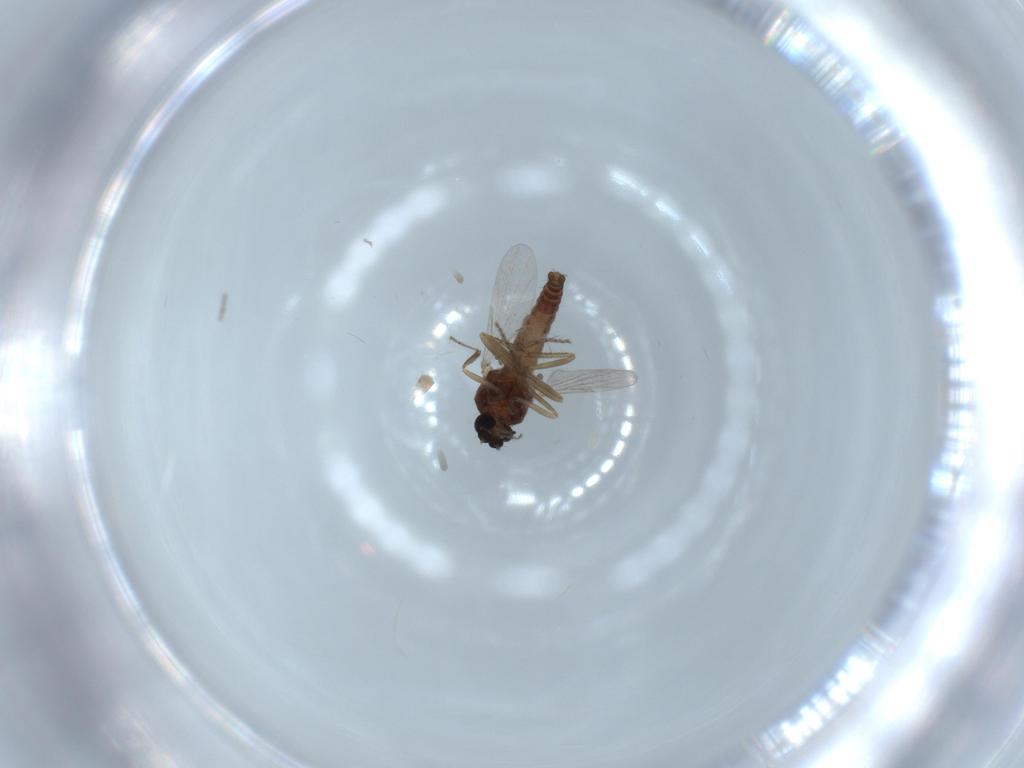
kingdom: Animalia
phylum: Arthropoda
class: Insecta
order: Diptera
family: Ceratopogonidae
